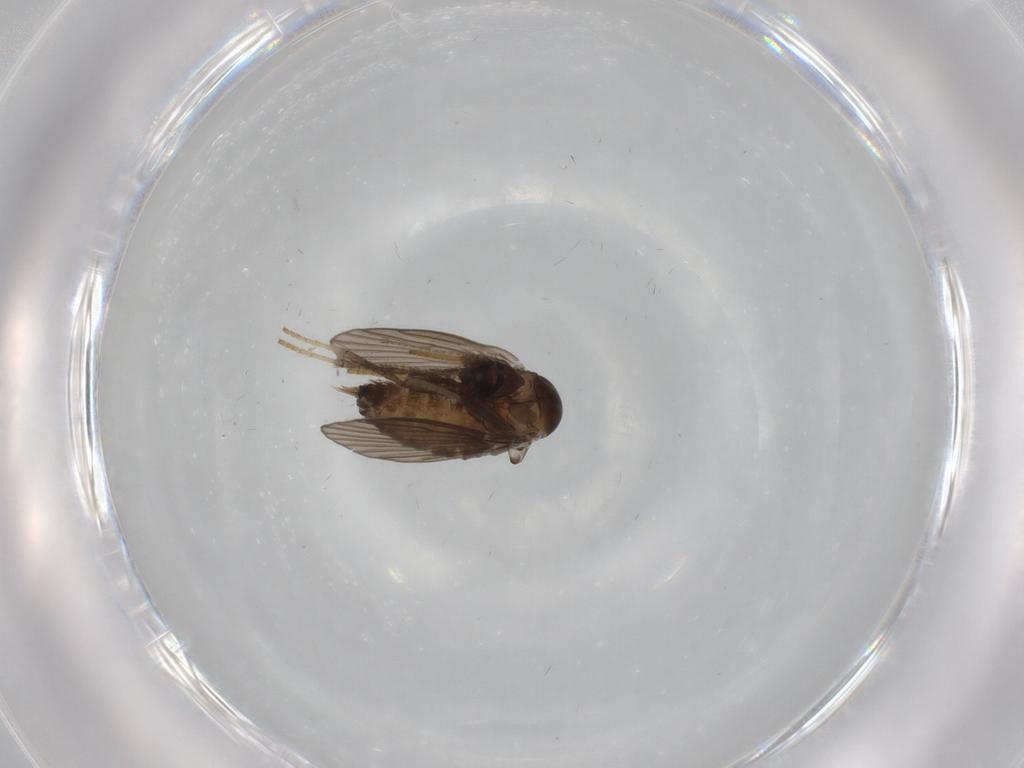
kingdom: Animalia
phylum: Arthropoda
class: Insecta
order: Diptera
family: Psychodidae
